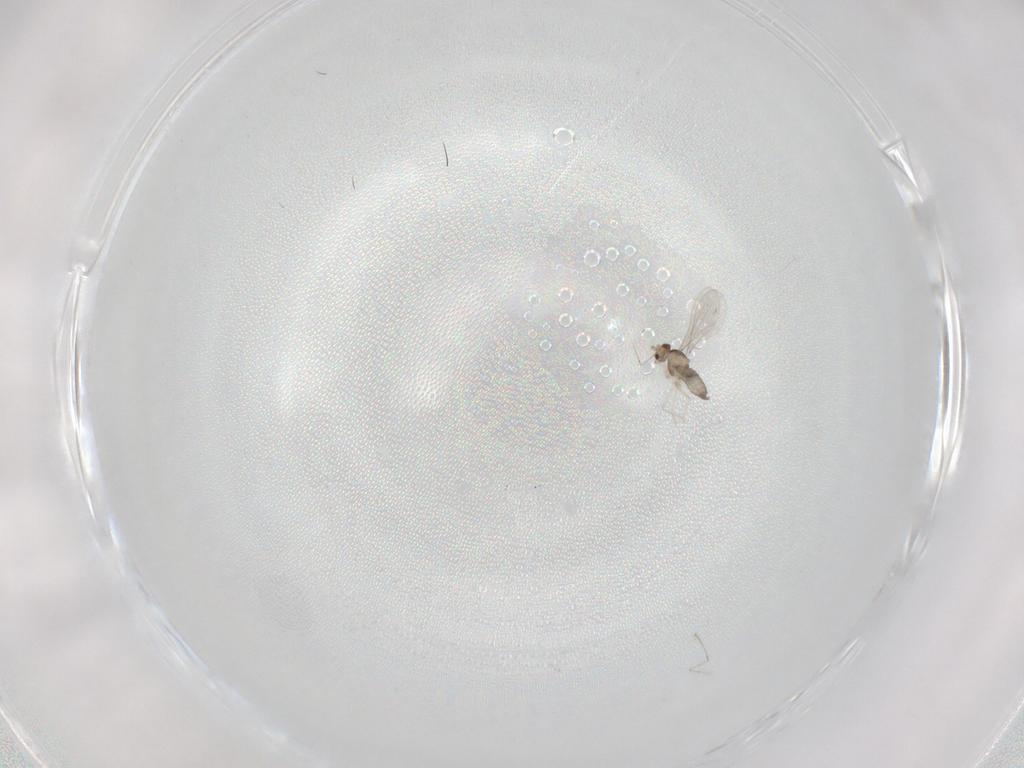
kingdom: Animalia
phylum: Arthropoda
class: Insecta
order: Diptera
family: Cecidomyiidae
